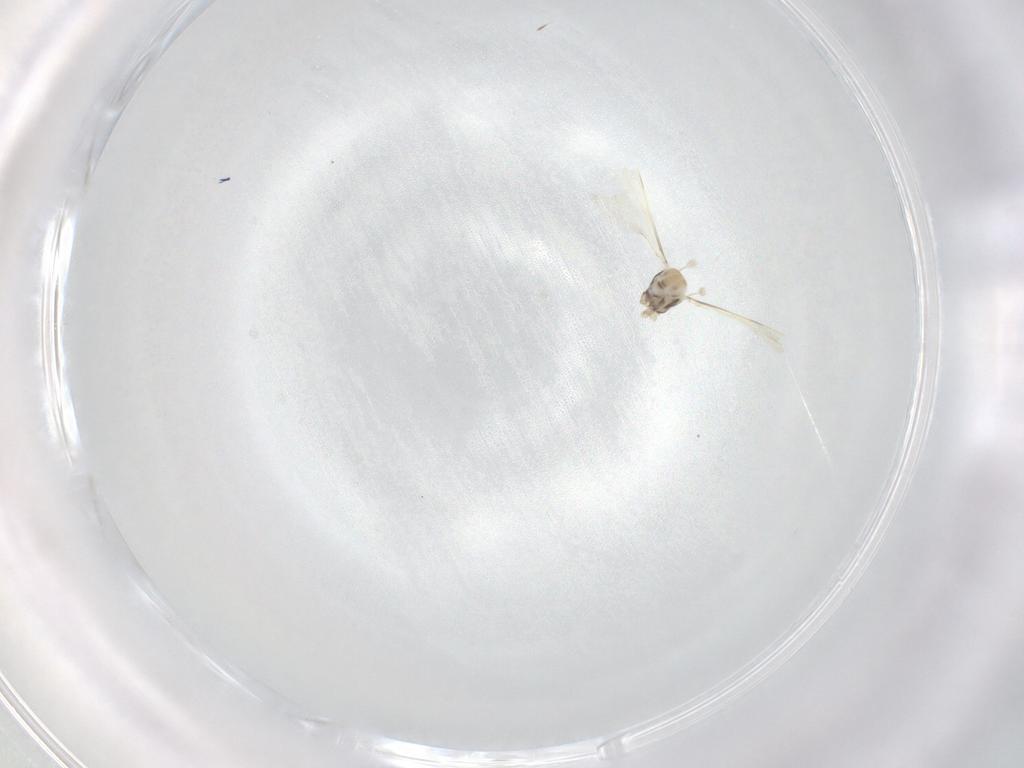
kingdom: Animalia
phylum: Arthropoda
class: Insecta
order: Diptera
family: Cecidomyiidae
